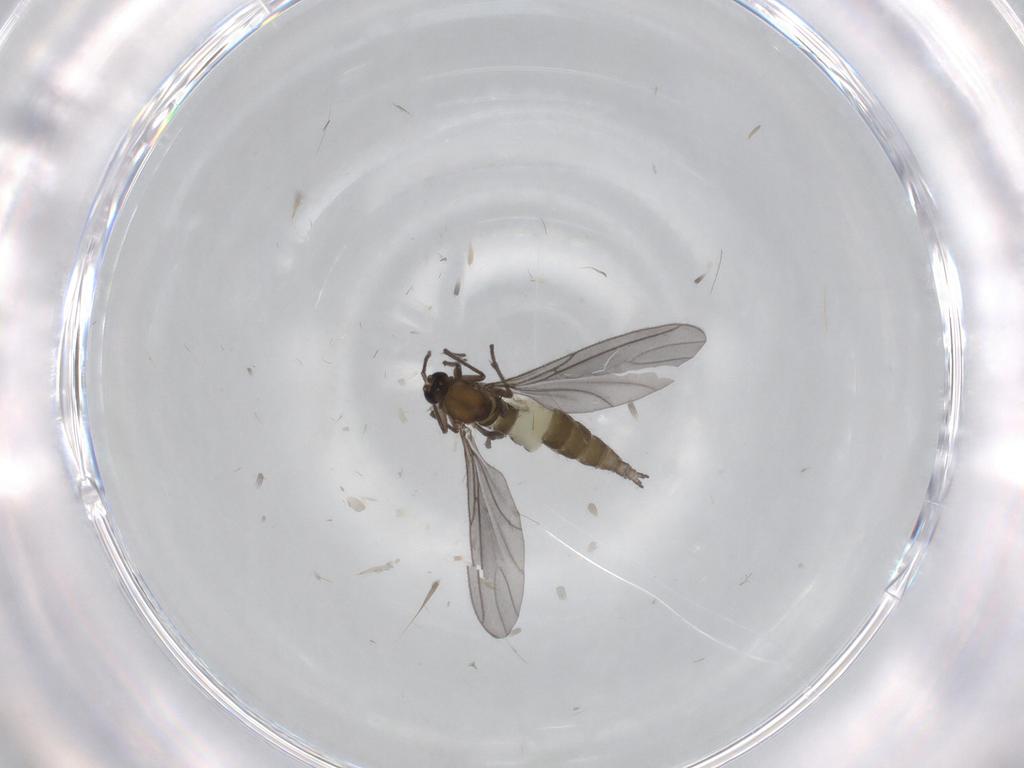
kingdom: Animalia
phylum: Arthropoda
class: Insecta
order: Diptera
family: Sciaridae
